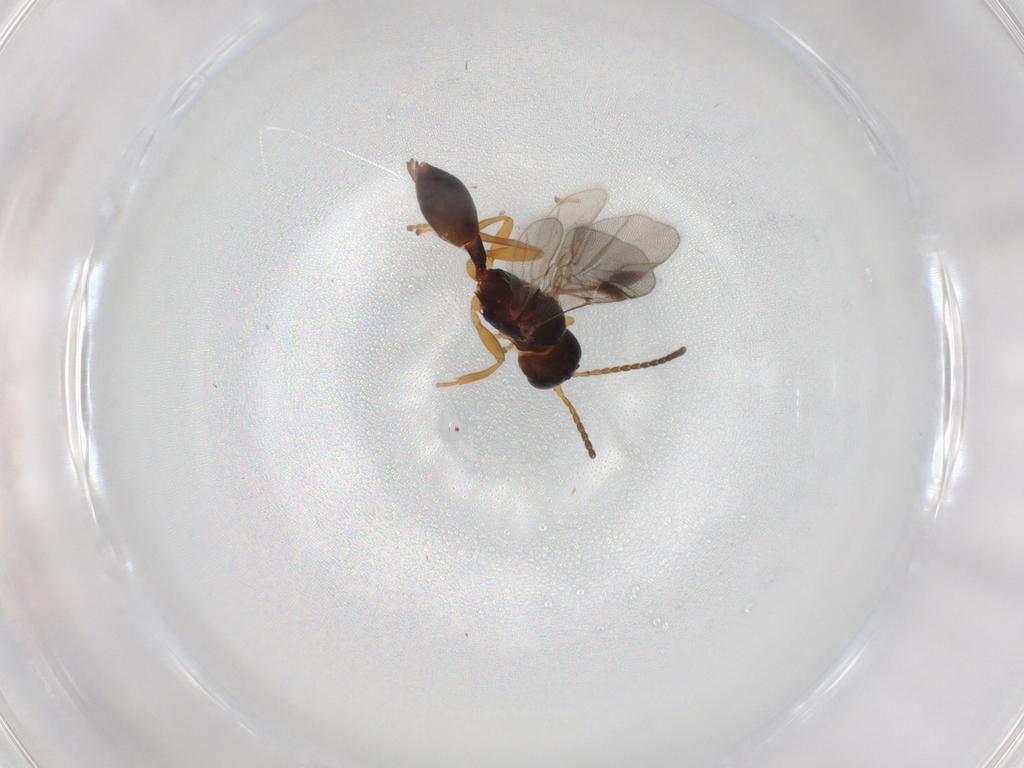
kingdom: Animalia
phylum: Arthropoda
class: Insecta
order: Hymenoptera
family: Braconidae
